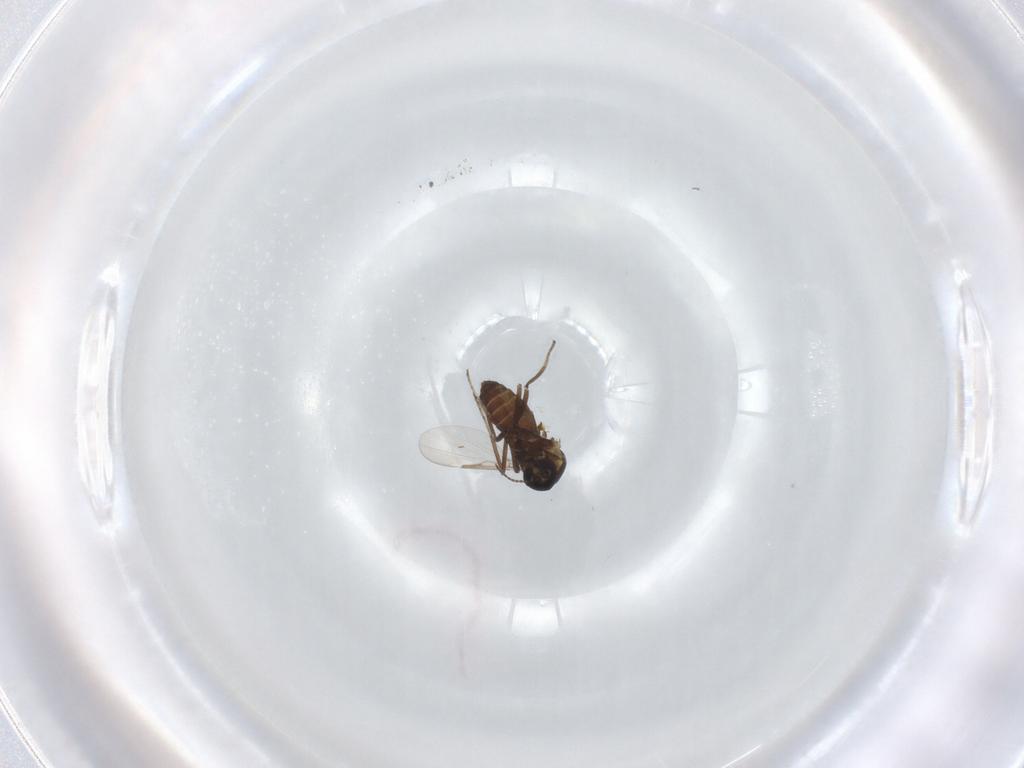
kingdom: Animalia
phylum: Arthropoda
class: Insecta
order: Diptera
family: Ceratopogonidae
